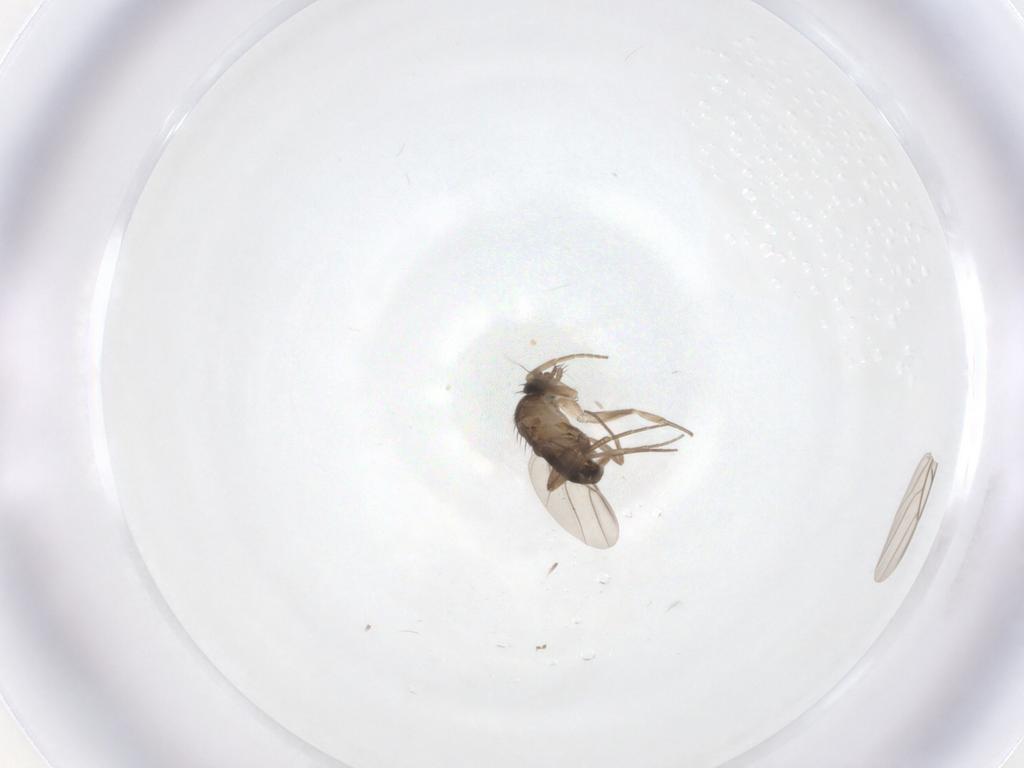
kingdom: Animalia
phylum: Arthropoda
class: Insecta
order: Diptera
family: Phoridae
